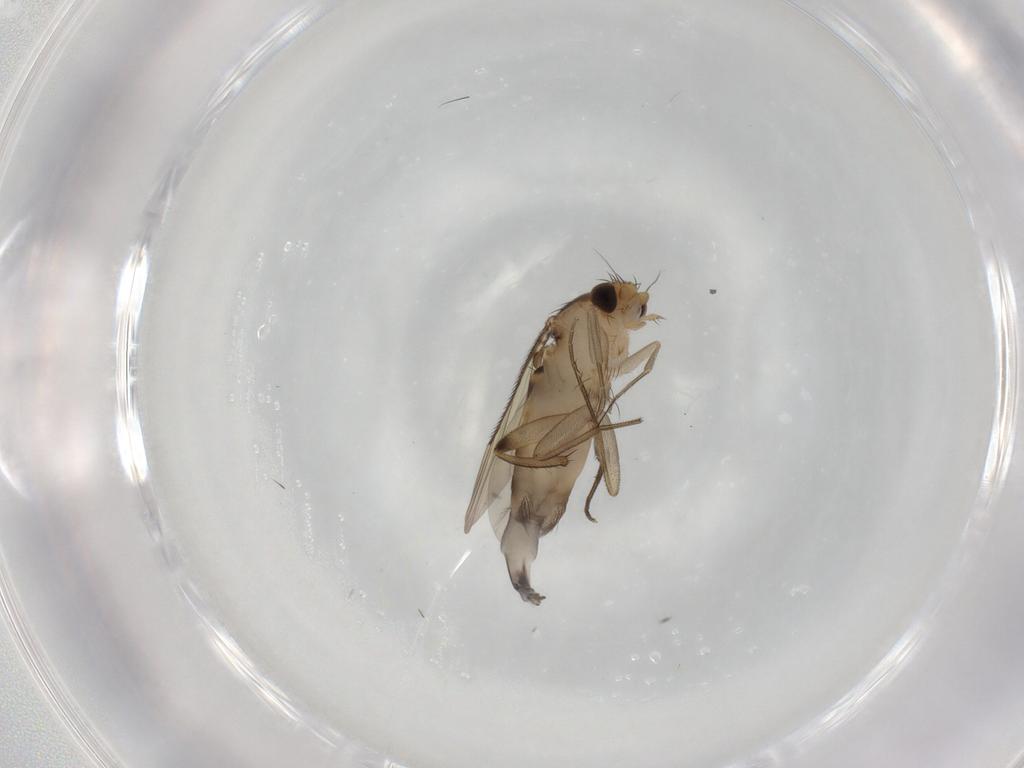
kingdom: Animalia
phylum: Arthropoda
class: Insecta
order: Diptera
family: Phoridae
